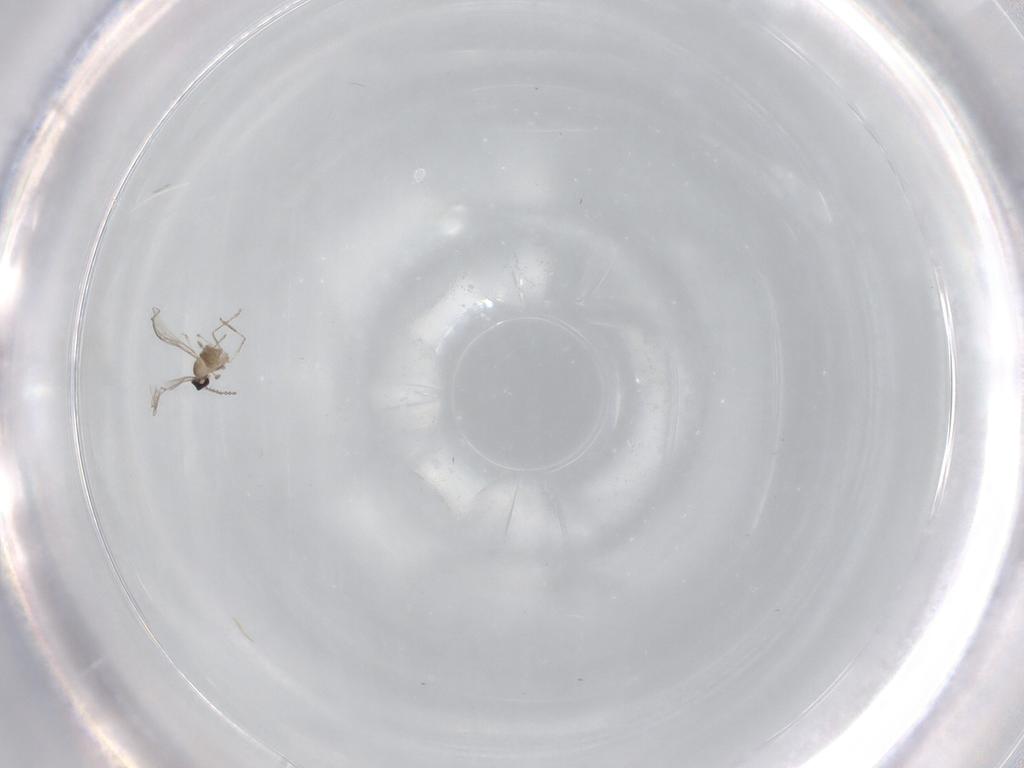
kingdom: Animalia
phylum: Arthropoda
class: Insecta
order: Diptera
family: Cecidomyiidae
